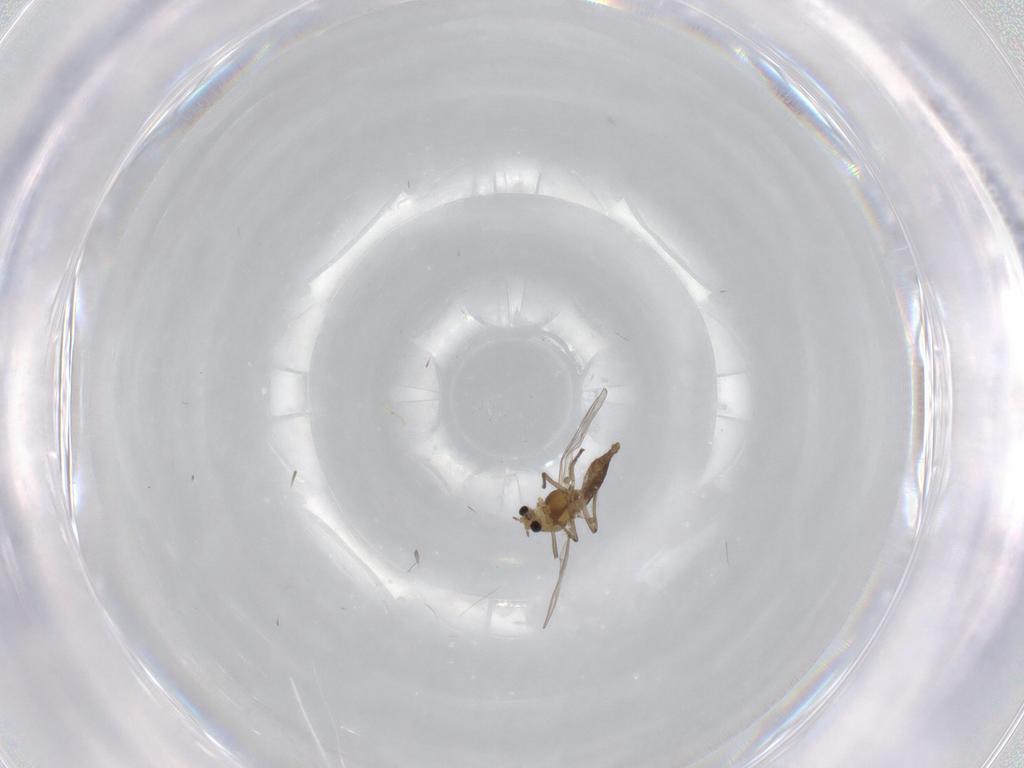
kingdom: Animalia
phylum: Arthropoda
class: Insecta
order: Diptera
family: Chironomidae
